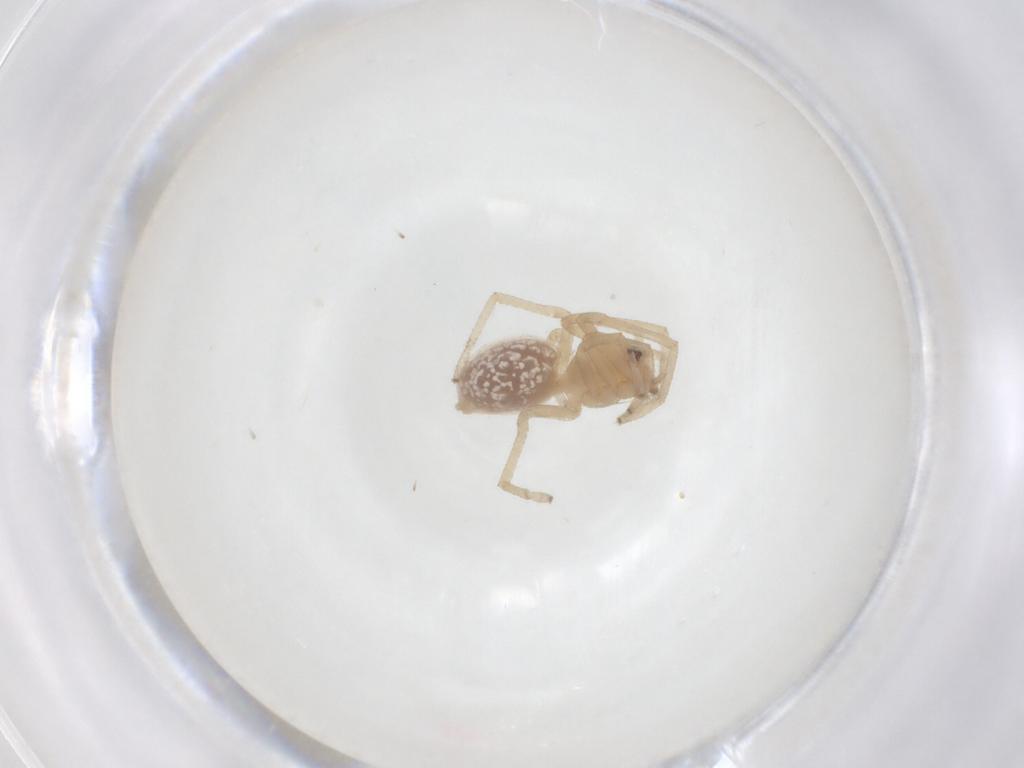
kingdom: Animalia
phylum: Arthropoda
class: Arachnida
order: Araneae
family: Cheiracanthiidae
